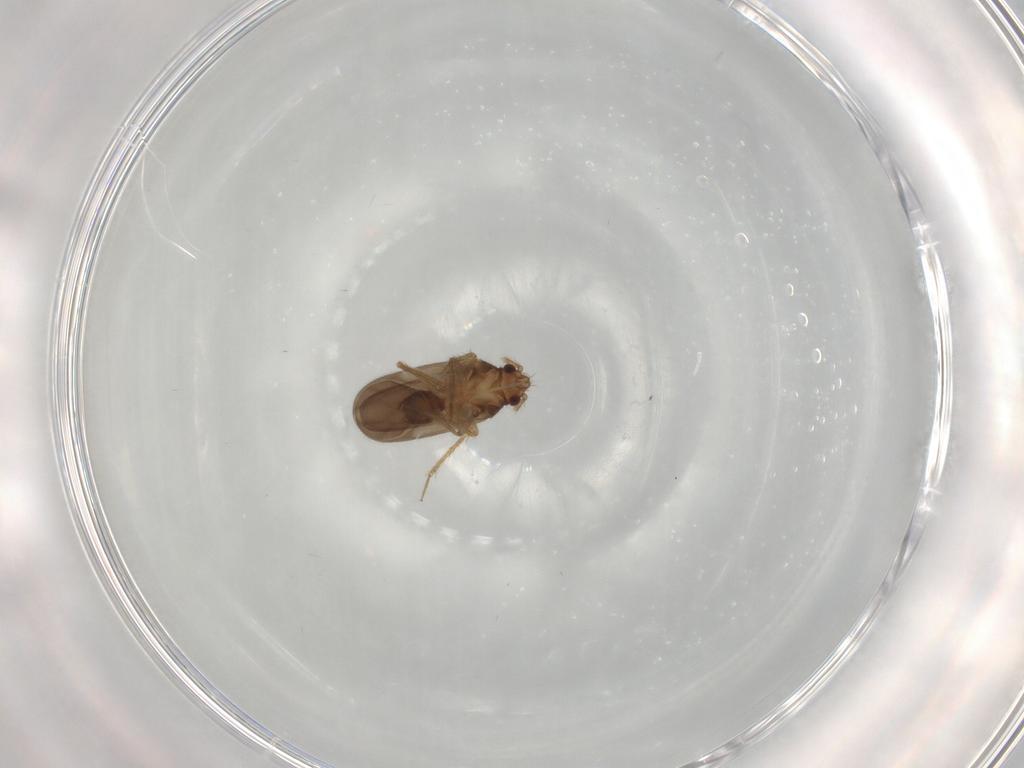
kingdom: Animalia
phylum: Arthropoda
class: Insecta
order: Hemiptera
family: Ceratocombidae
